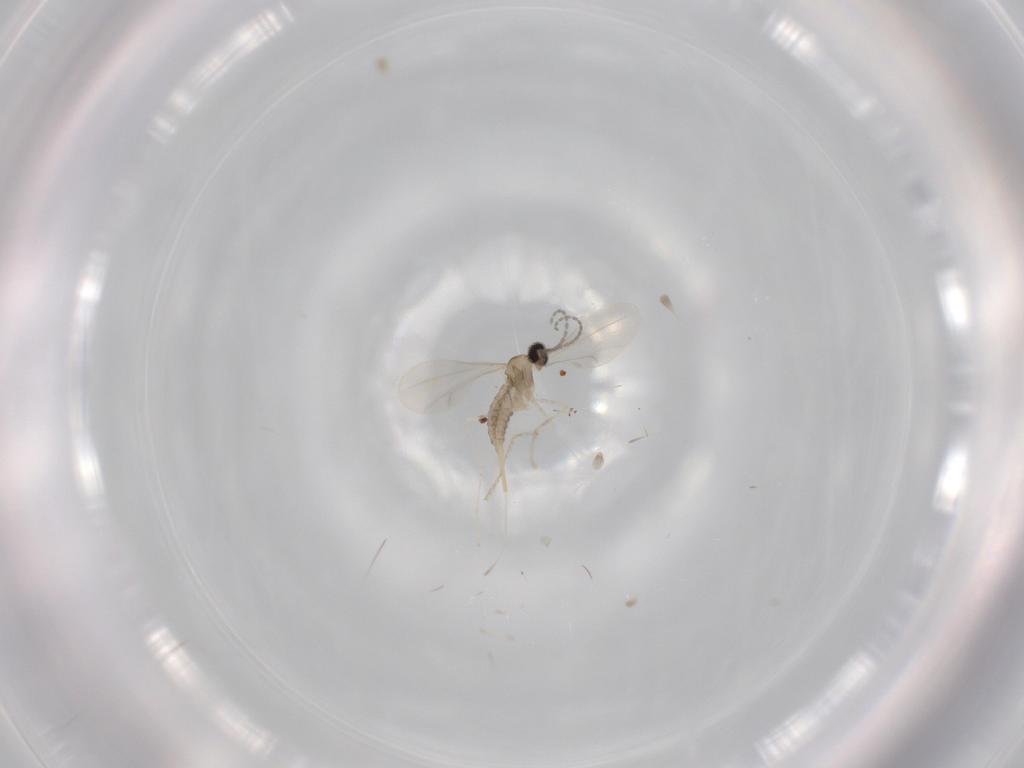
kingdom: Animalia
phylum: Arthropoda
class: Insecta
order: Diptera
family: Cecidomyiidae
